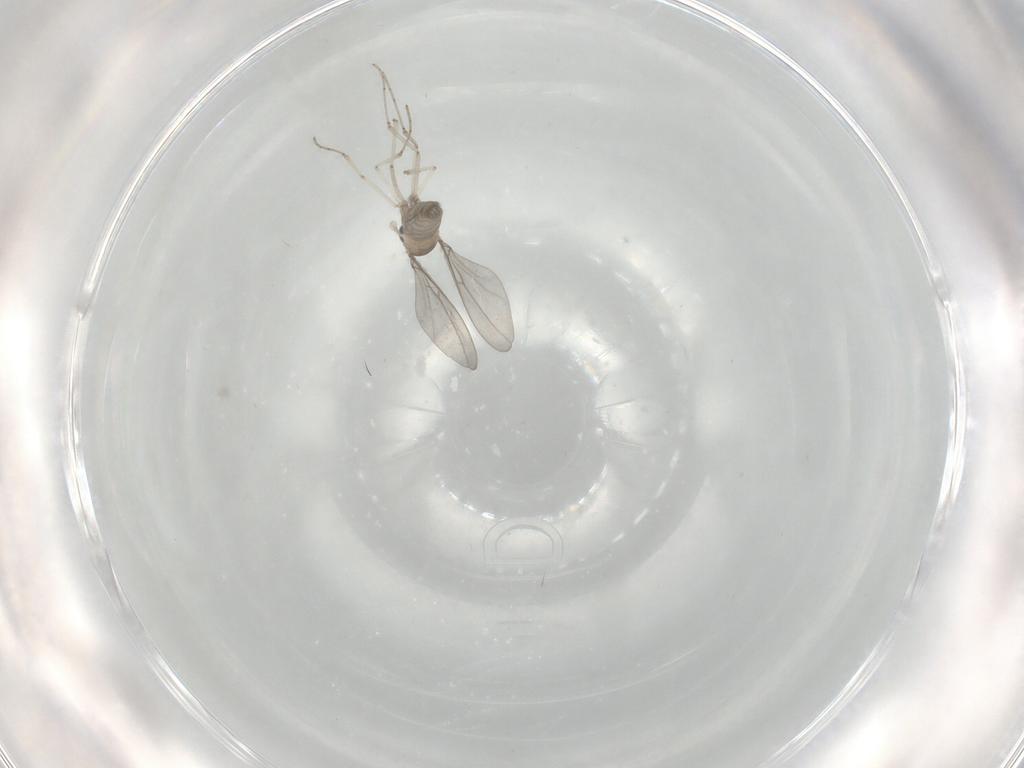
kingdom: Animalia
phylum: Arthropoda
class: Insecta
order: Diptera
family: Cecidomyiidae
